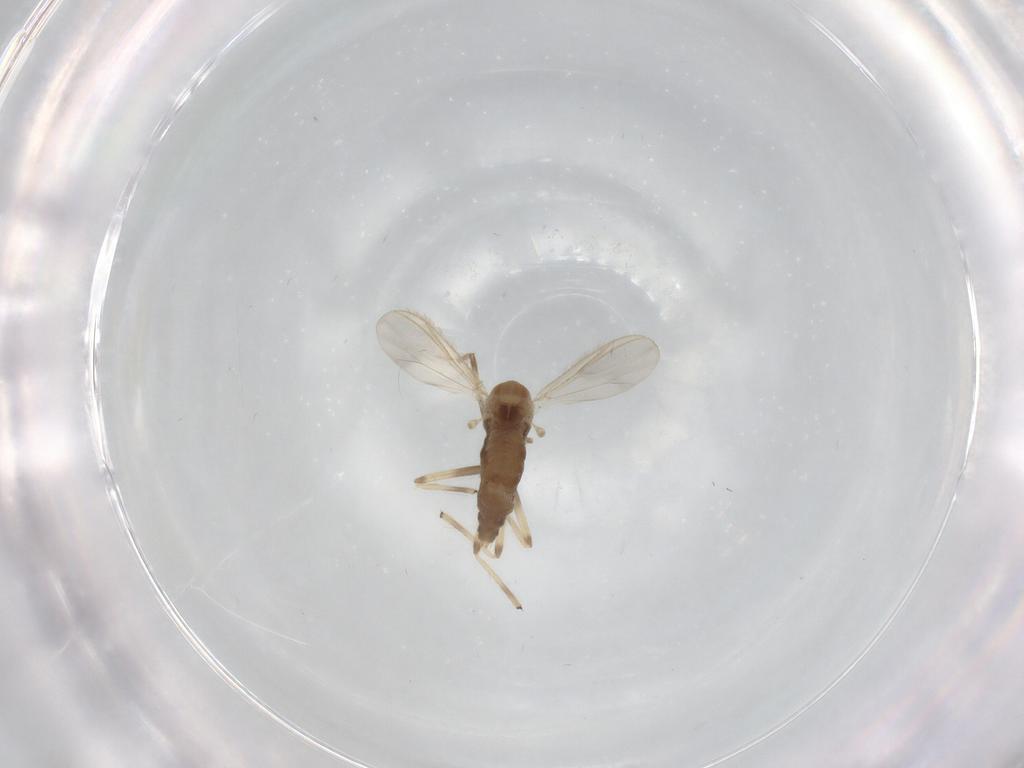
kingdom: Animalia
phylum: Arthropoda
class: Insecta
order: Diptera
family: Chironomidae
